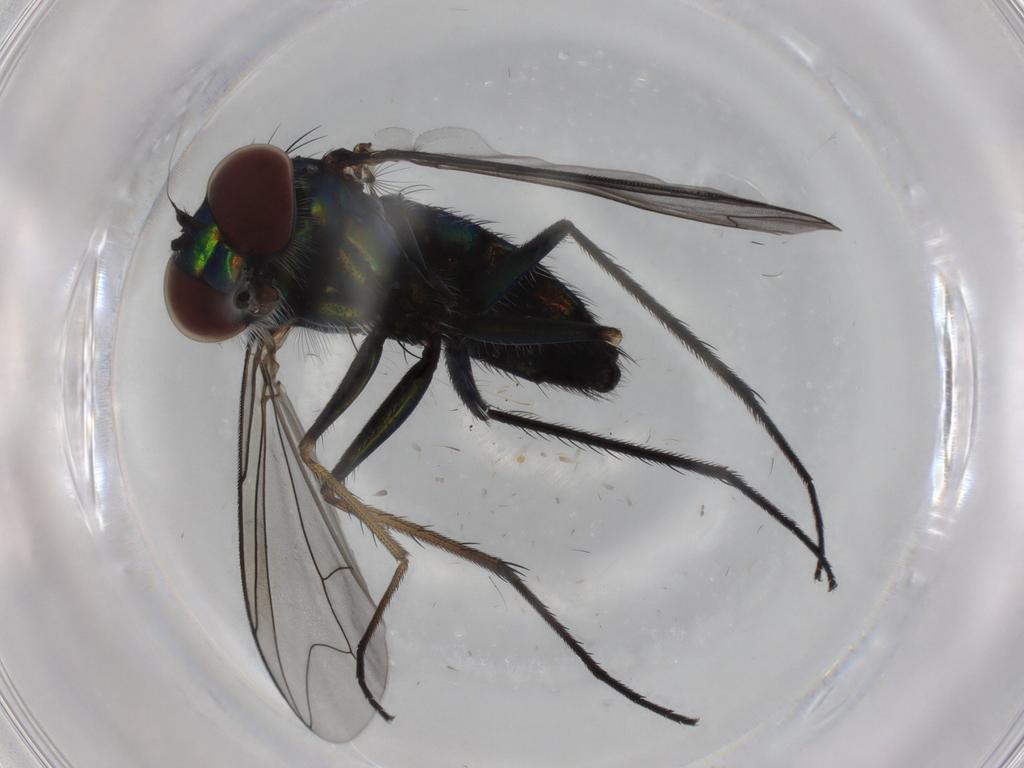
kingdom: Animalia
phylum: Arthropoda
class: Insecta
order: Diptera
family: Dolichopodidae
